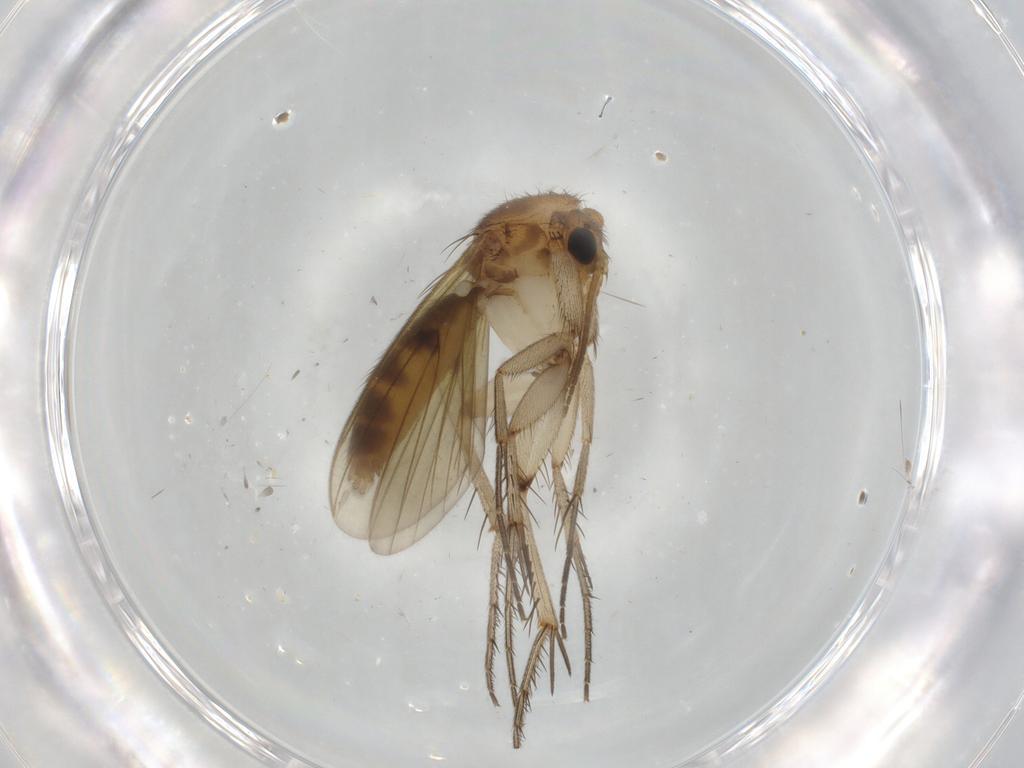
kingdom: Animalia
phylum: Arthropoda
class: Insecta
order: Diptera
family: Mycetophilidae
